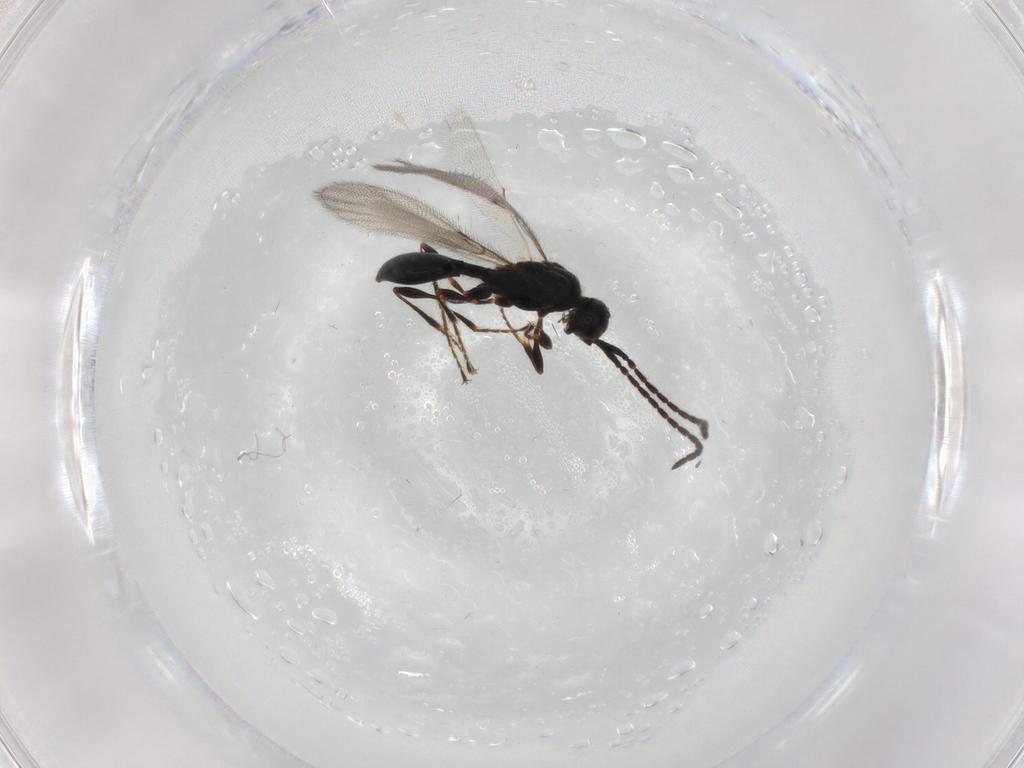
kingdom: Animalia
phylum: Arthropoda
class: Insecta
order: Hymenoptera
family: Diapriidae
